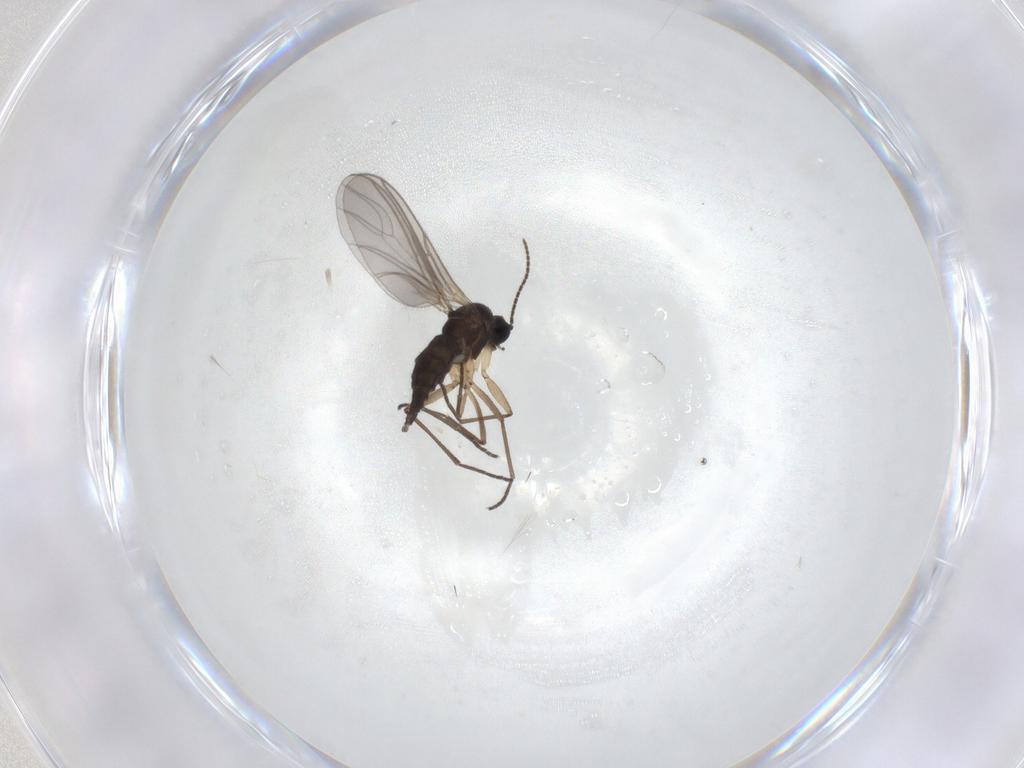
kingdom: Animalia
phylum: Arthropoda
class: Insecta
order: Diptera
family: Sciaridae
